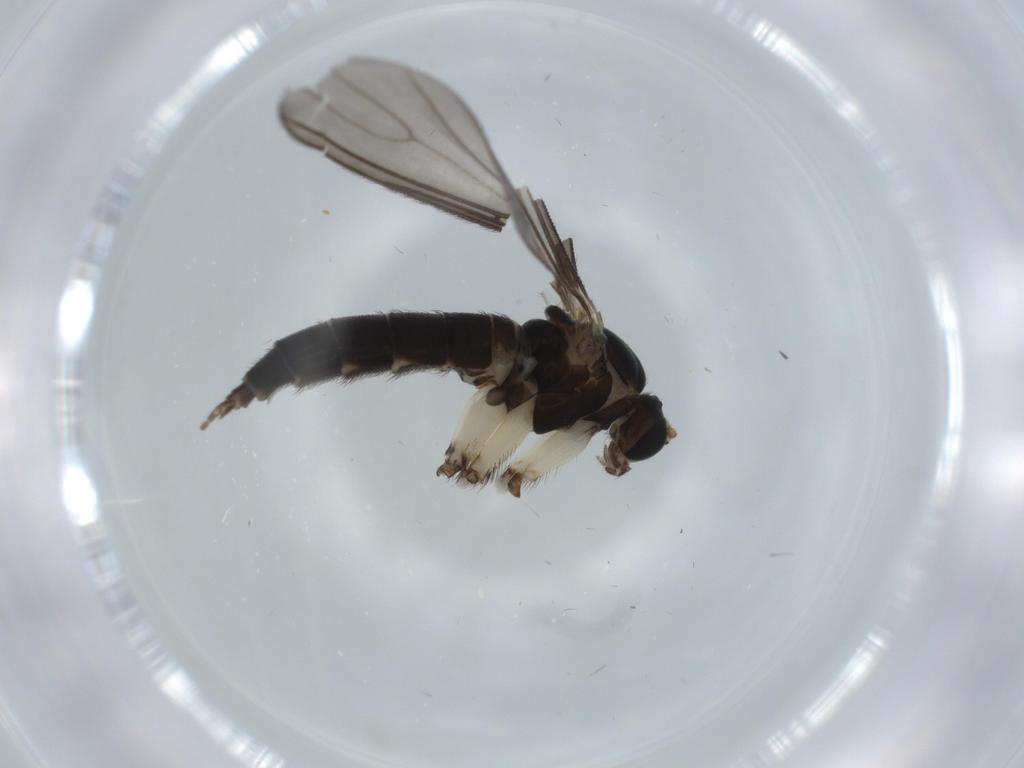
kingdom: Animalia
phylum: Arthropoda
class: Insecta
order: Diptera
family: Sciaridae
